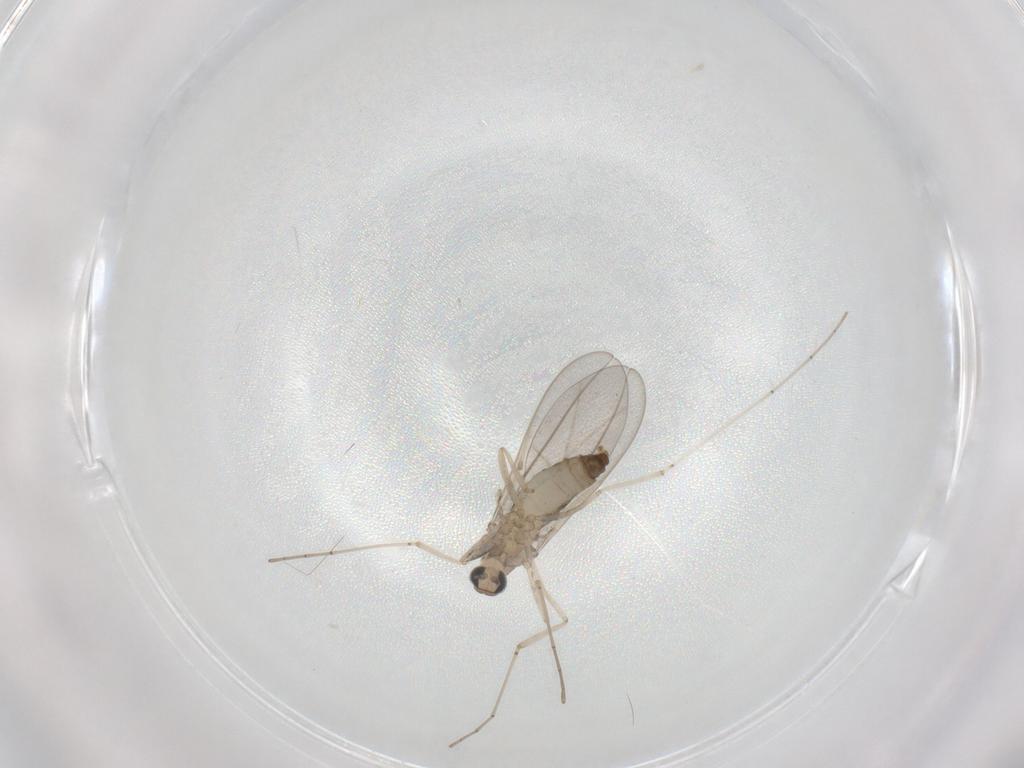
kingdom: Animalia
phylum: Arthropoda
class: Insecta
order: Diptera
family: Cecidomyiidae
